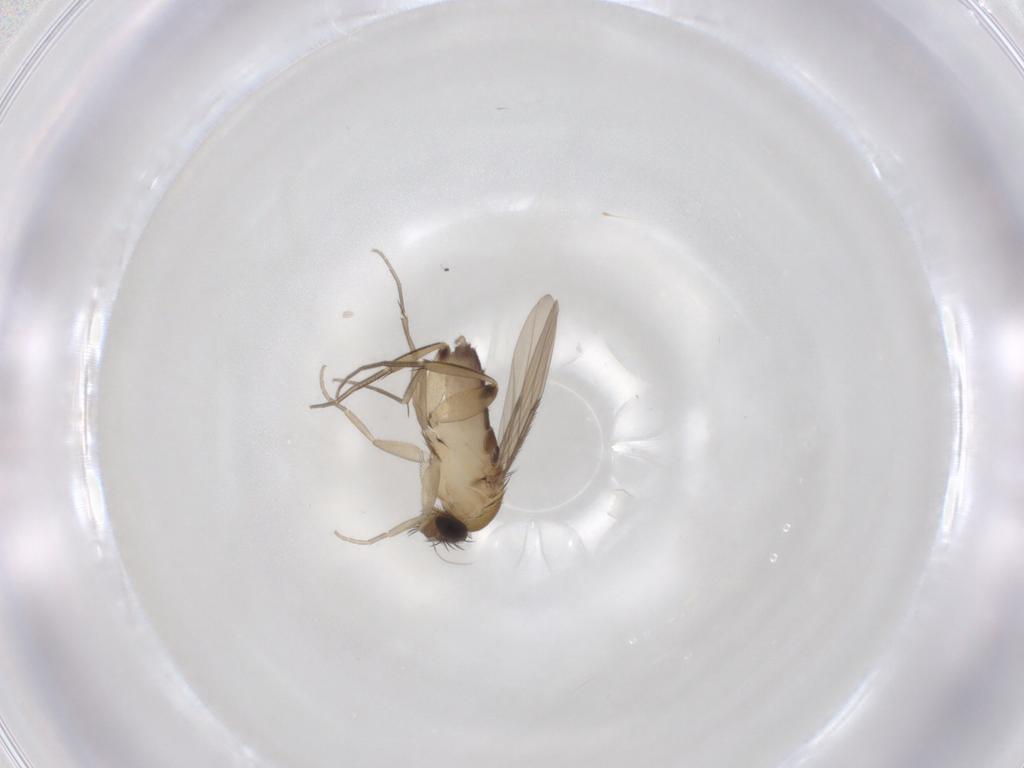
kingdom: Animalia
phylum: Arthropoda
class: Insecta
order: Diptera
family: Phoridae
